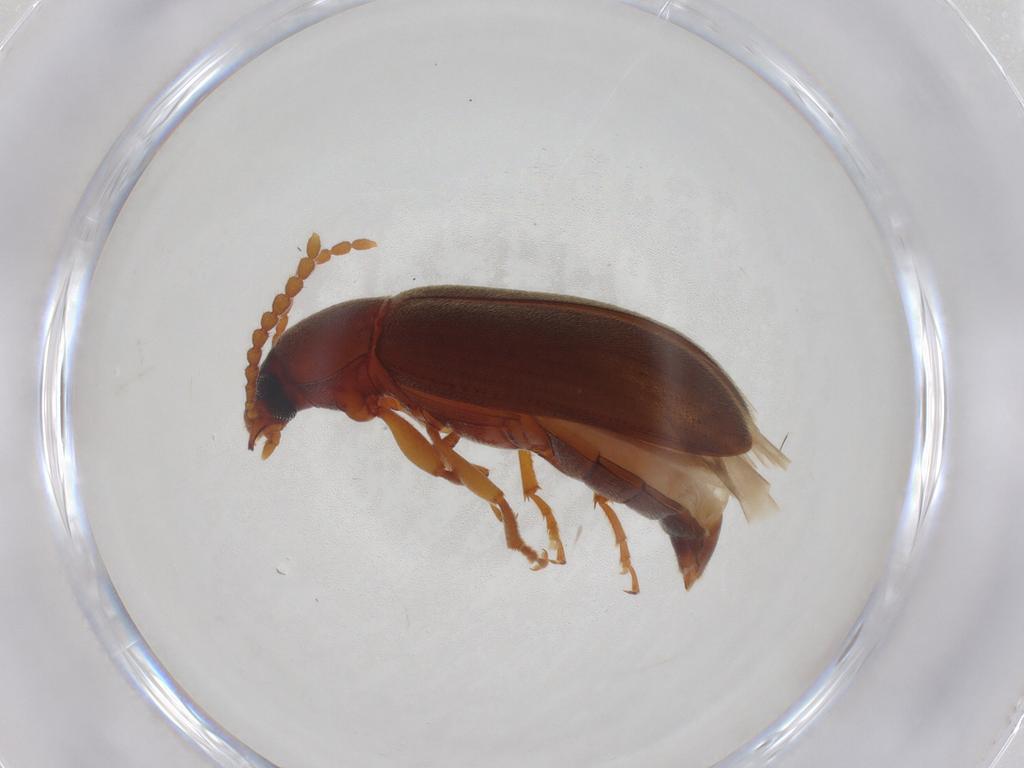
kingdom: Animalia
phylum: Arthropoda
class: Insecta
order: Coleoptera
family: Tenebrionidae
